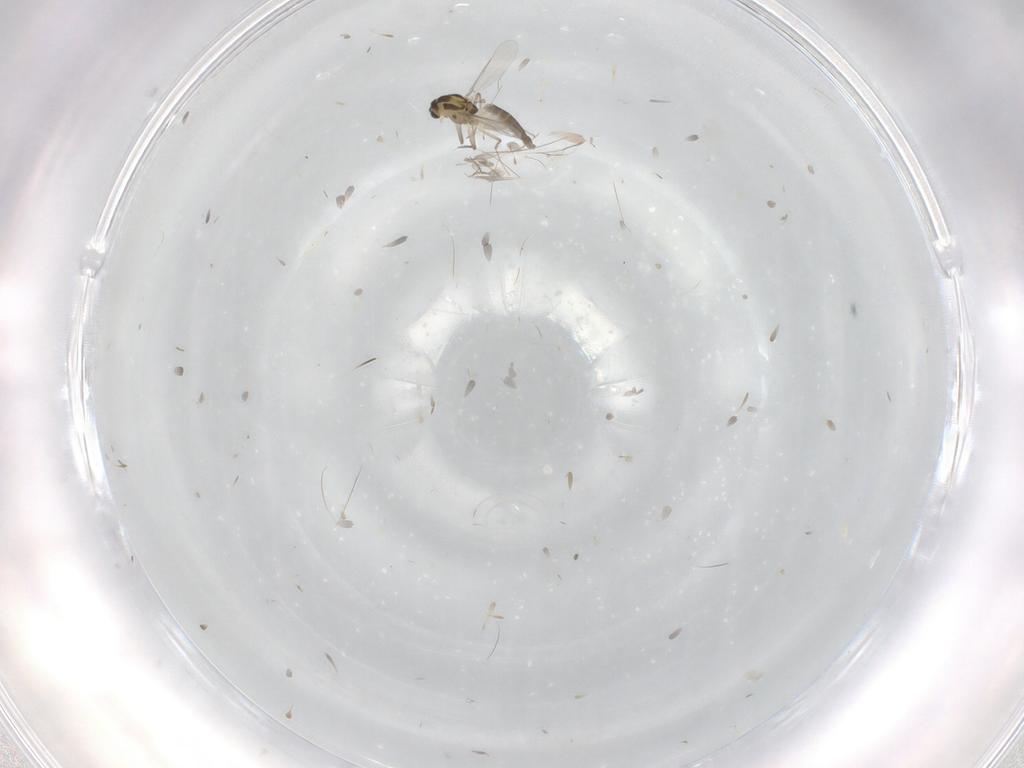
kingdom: Animalia
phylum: Arthropoda
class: Insecta
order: Diptera
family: Chironomidae
